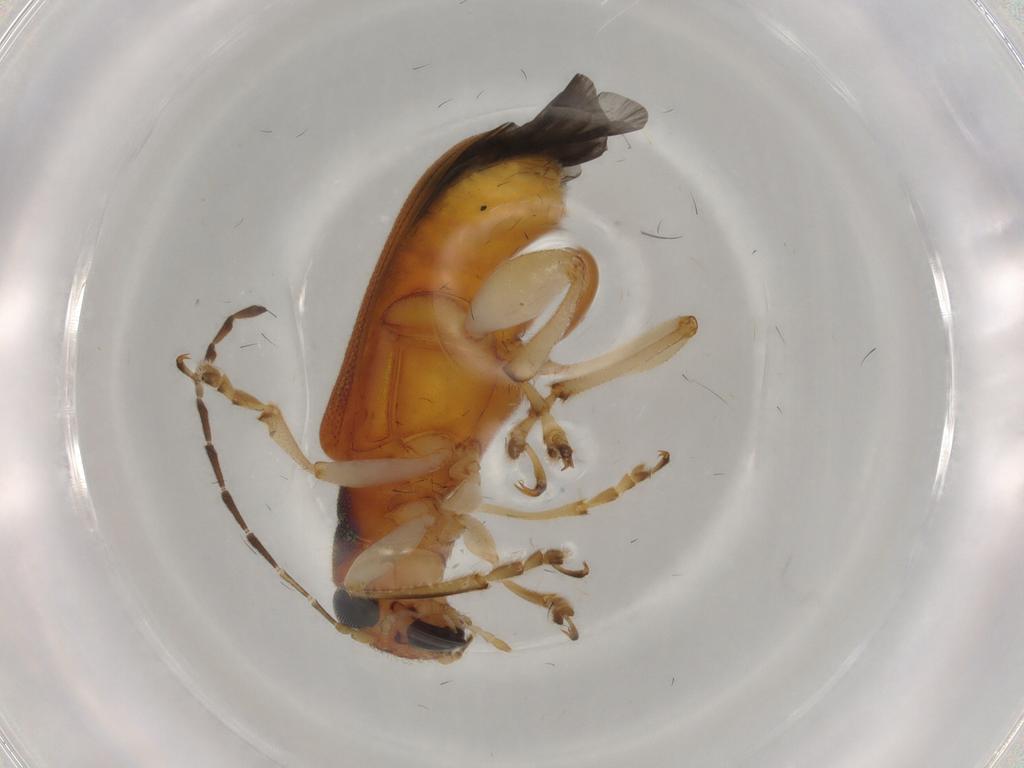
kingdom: Animalia
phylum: Arthropoda
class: Insecta
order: Coleoptera
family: Chrysomelidae
